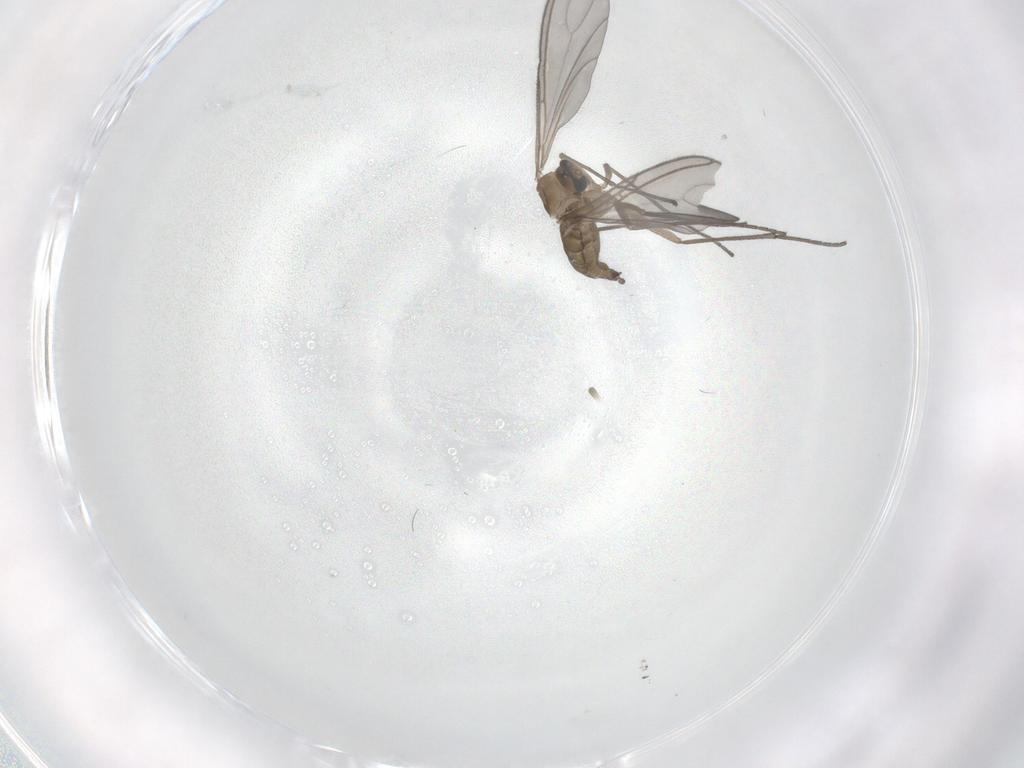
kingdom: Animalia
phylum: Arthropoda
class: Insecta
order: Diptera
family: Sciaridae
